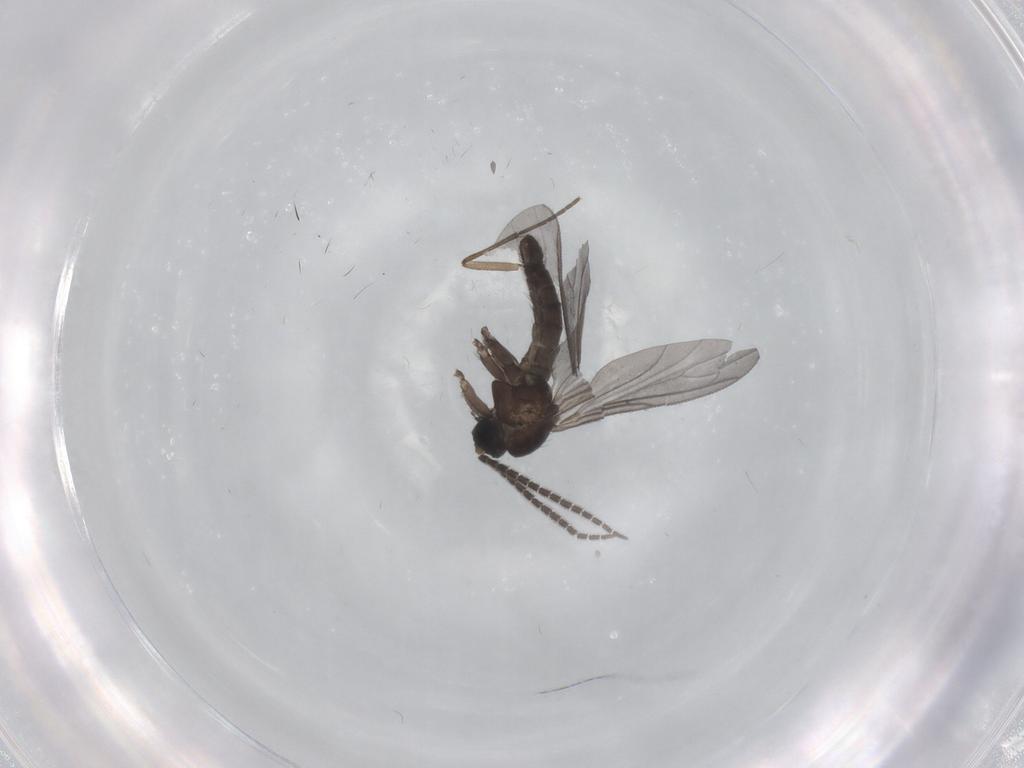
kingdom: Animalia
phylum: Arthropoda
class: Insecta
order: Diptera
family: Sciaridae
